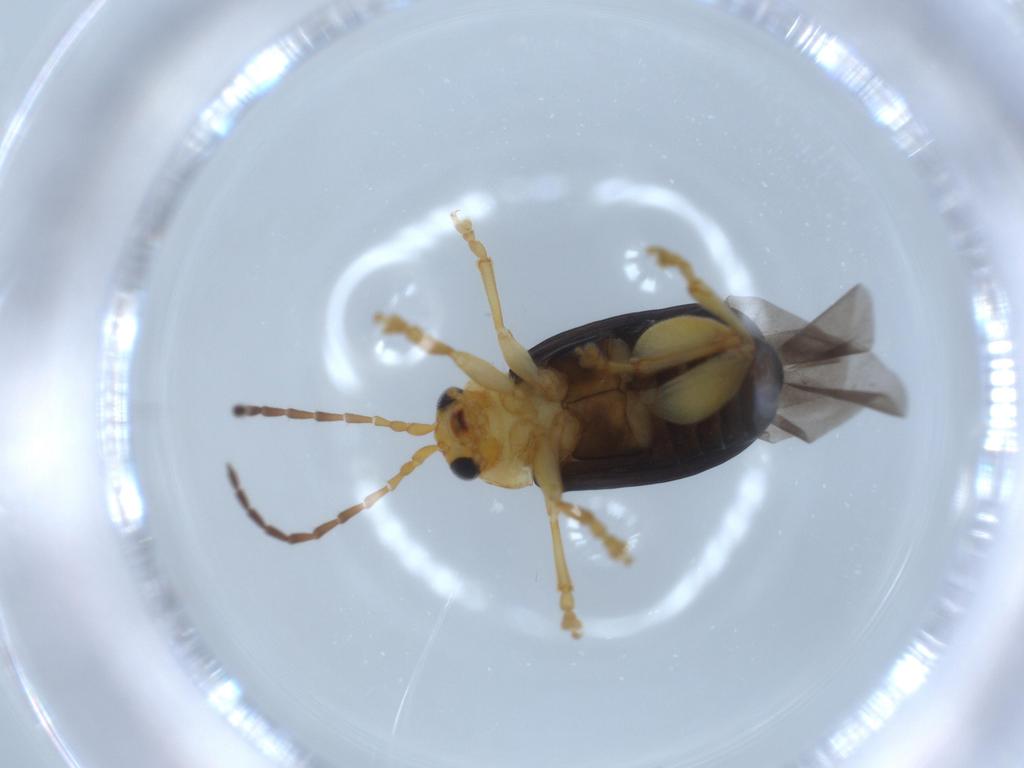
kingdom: Animalia
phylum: Arthropoda
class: Insecta
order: Coleoptera
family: Chrysomelidae
